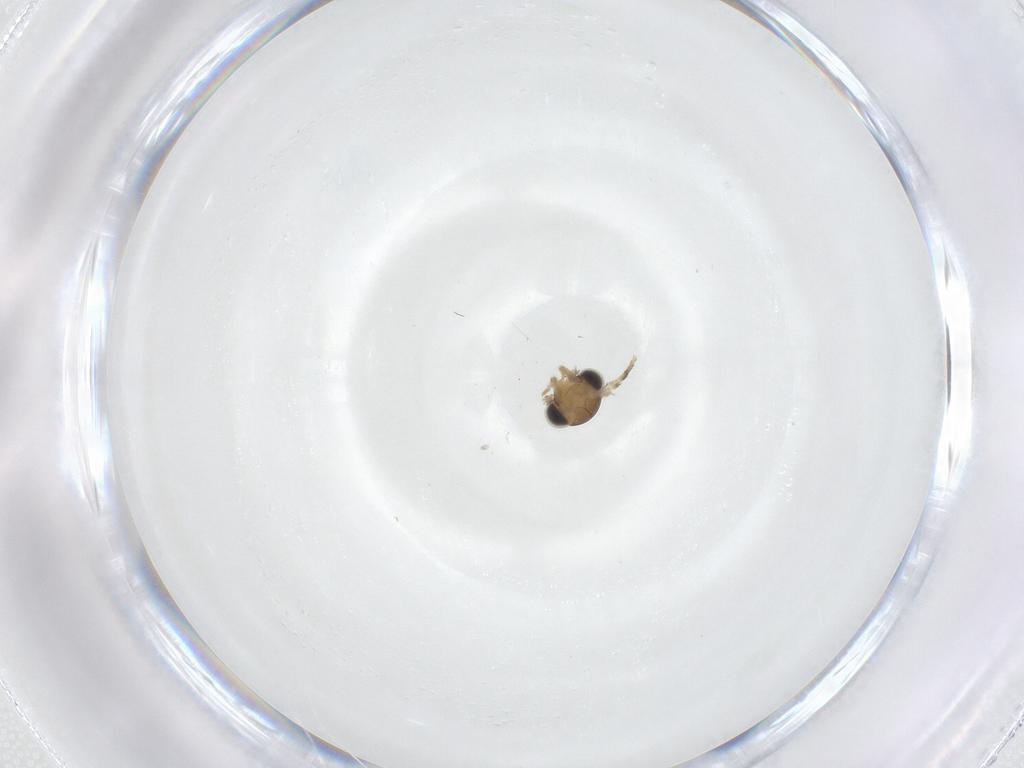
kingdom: Animalia
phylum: Arthropoda
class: Insecta
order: Lepidoptera
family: Tineidae
